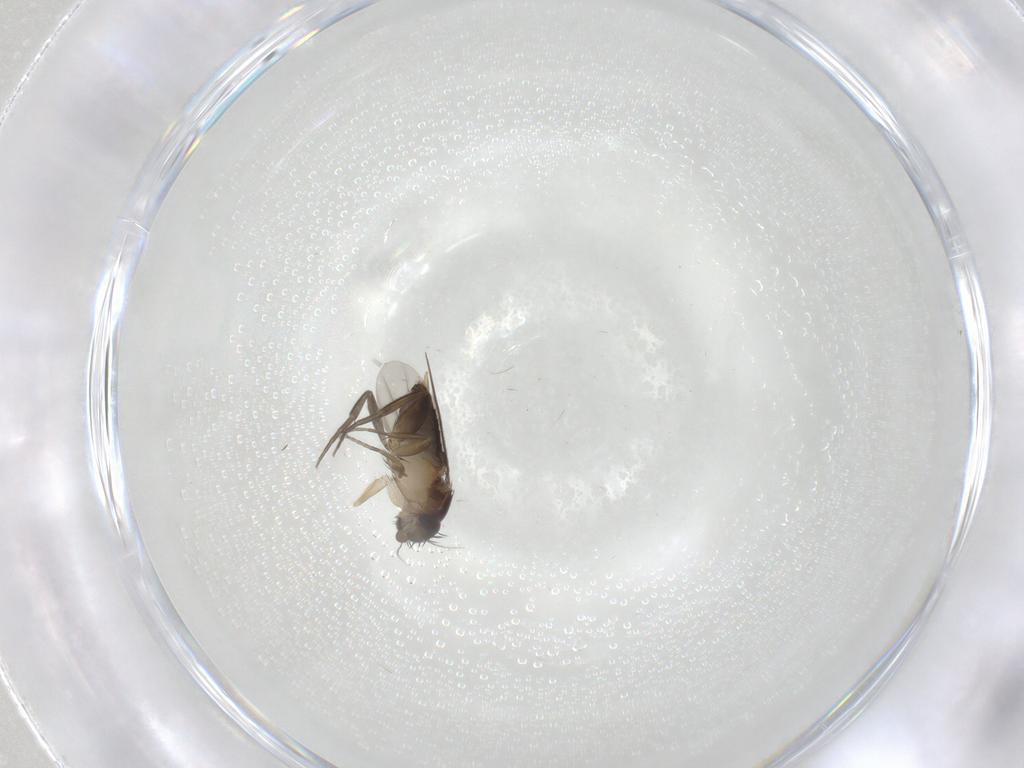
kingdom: Animalia
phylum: Arthropoda
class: Insecta
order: Diptera
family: Phoridae
